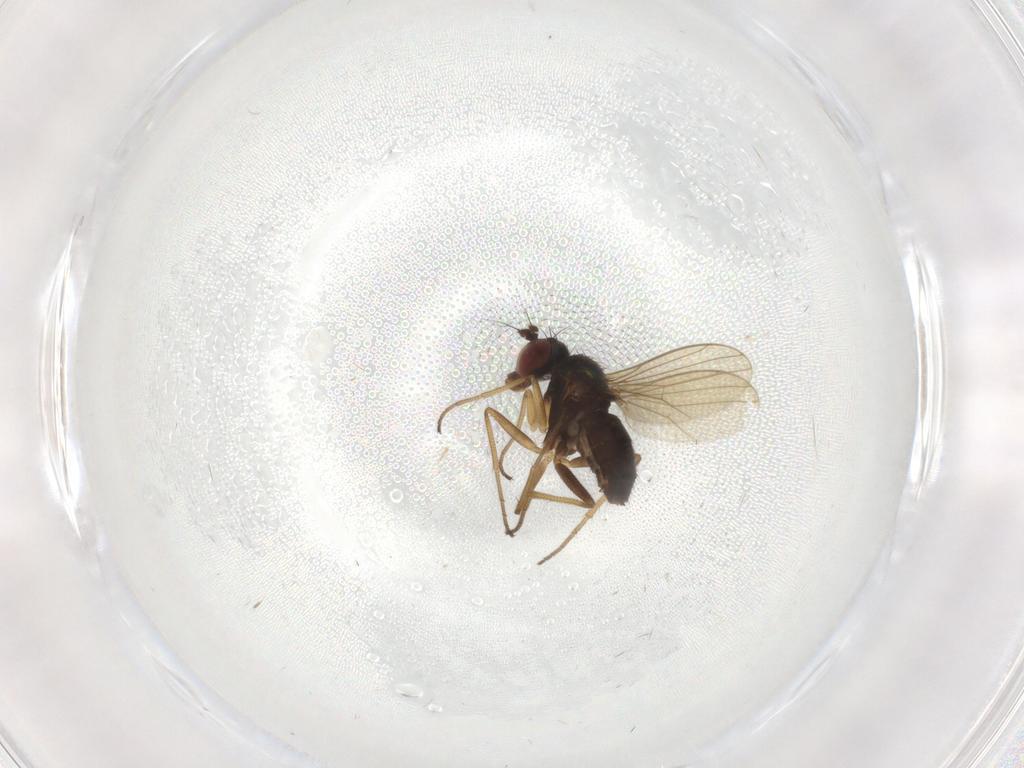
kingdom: Animalia
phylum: Arthropoda
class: Insecta
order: Diptera
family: Dolichopodidae
